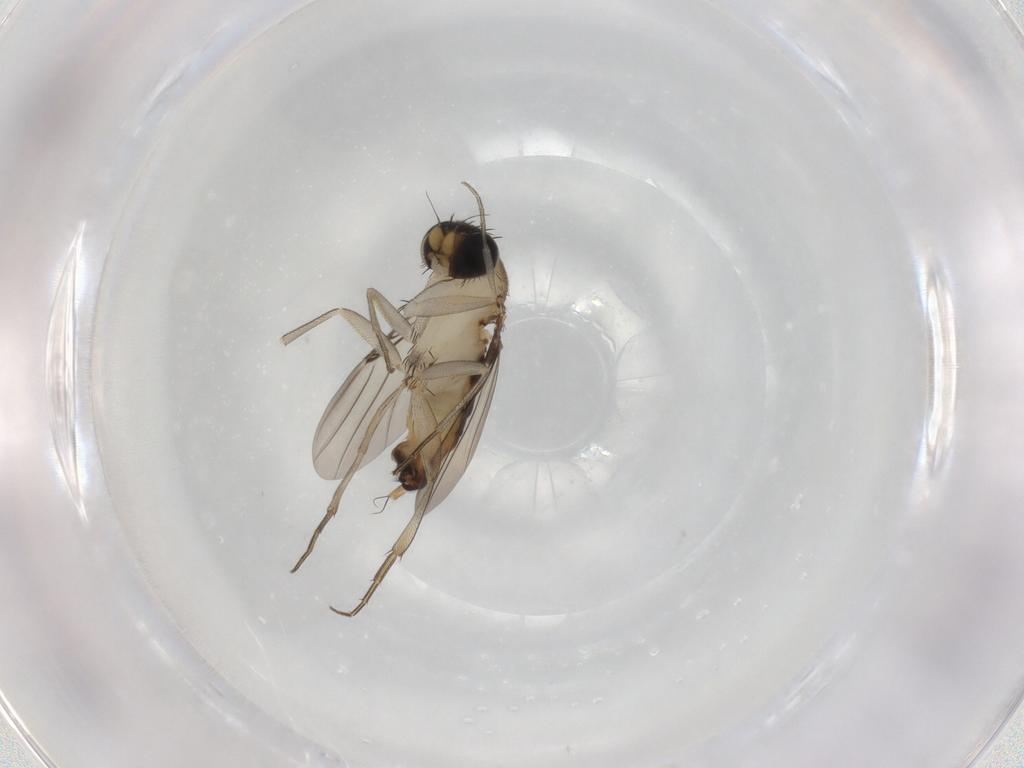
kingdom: Animalia
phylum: Arthropoda
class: Insecta
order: Diptera
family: Phoridae
